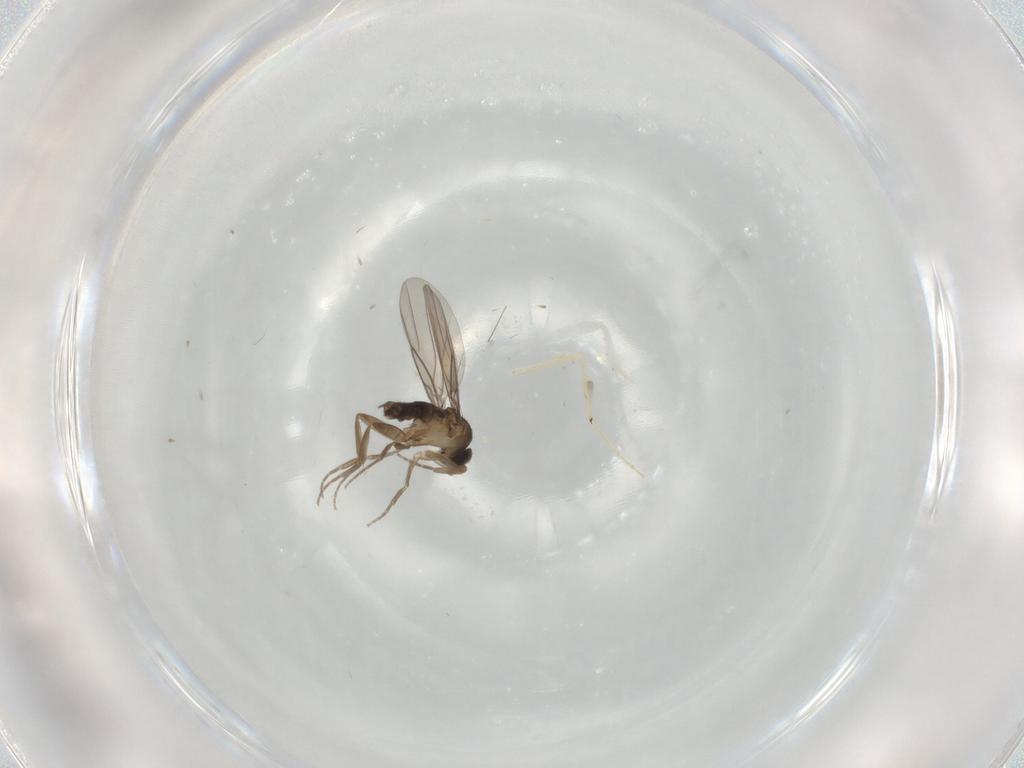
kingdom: Animalia
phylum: Arthropoda
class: Insecta
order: Diptera
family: Chironomidae
